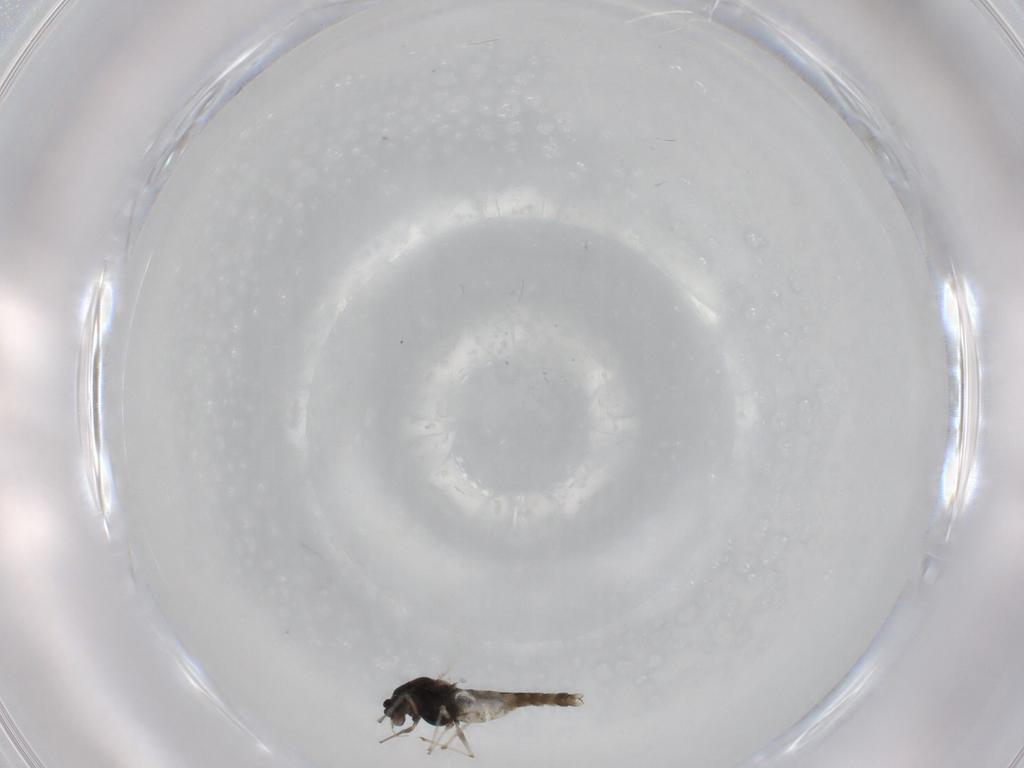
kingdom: Animalia
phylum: Arthropoda
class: Insecta
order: Diptera
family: Chironomidae
